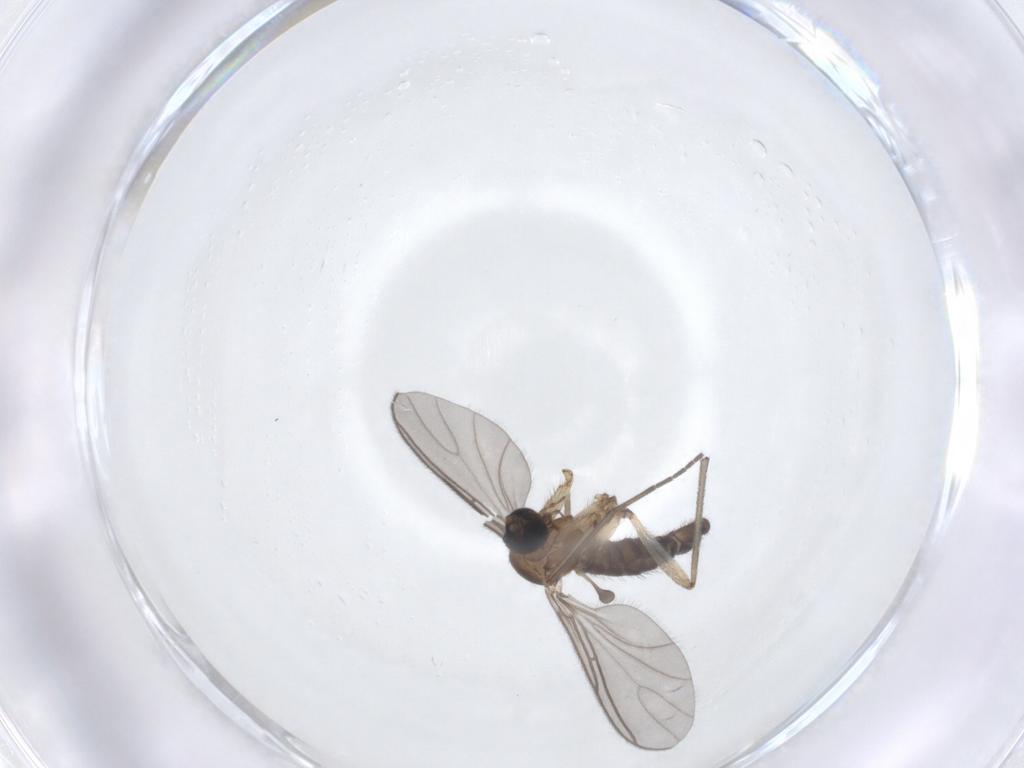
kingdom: Animalia
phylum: Arthropoda
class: Insecta
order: Diptera
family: Sciaridae
